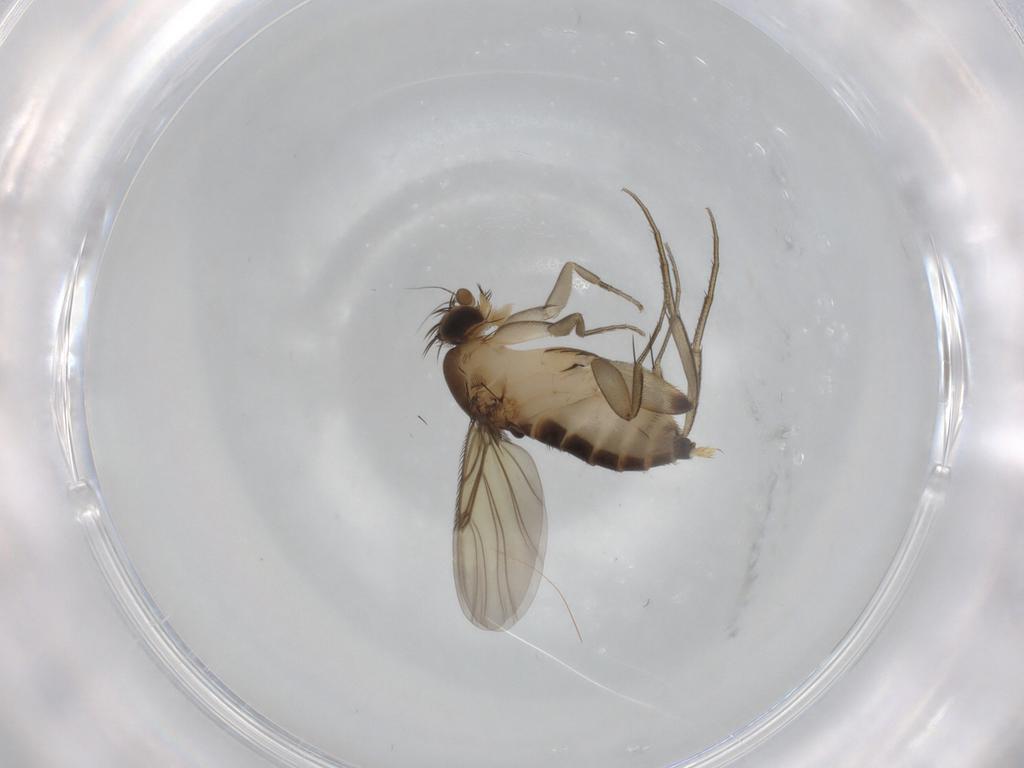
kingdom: Animalia
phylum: Arthropoda
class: Insecta
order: Diptera
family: Phoridae
